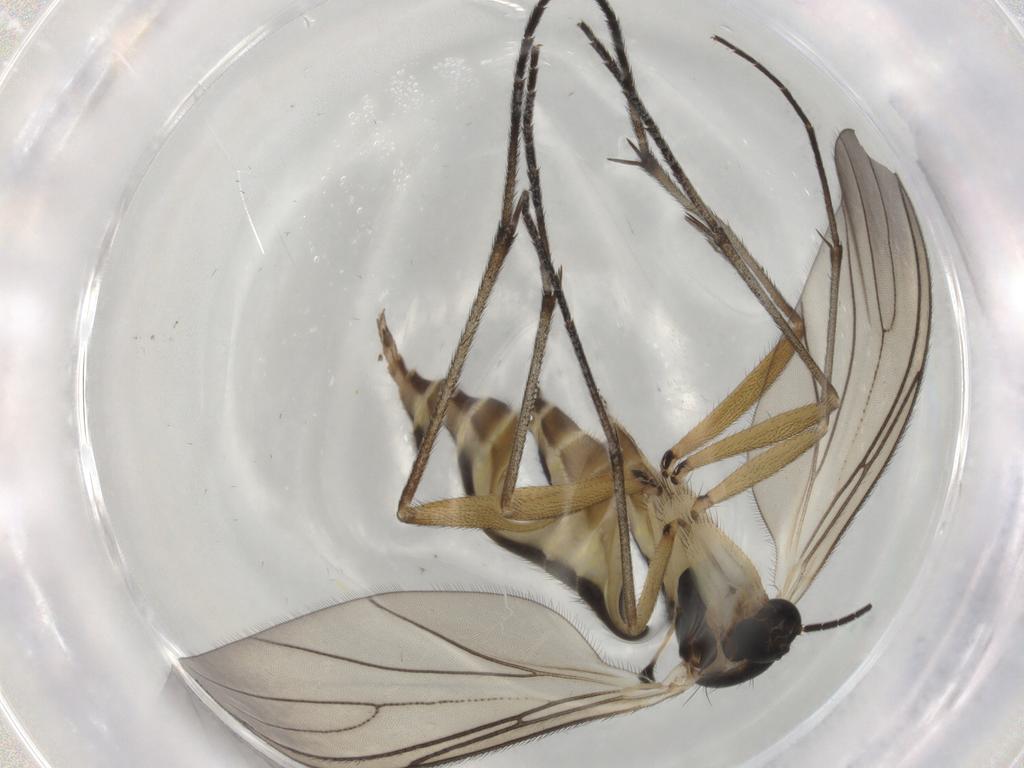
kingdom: Animalia
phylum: Arthropoda
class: Insecta
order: Diptera
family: Sciaridae
